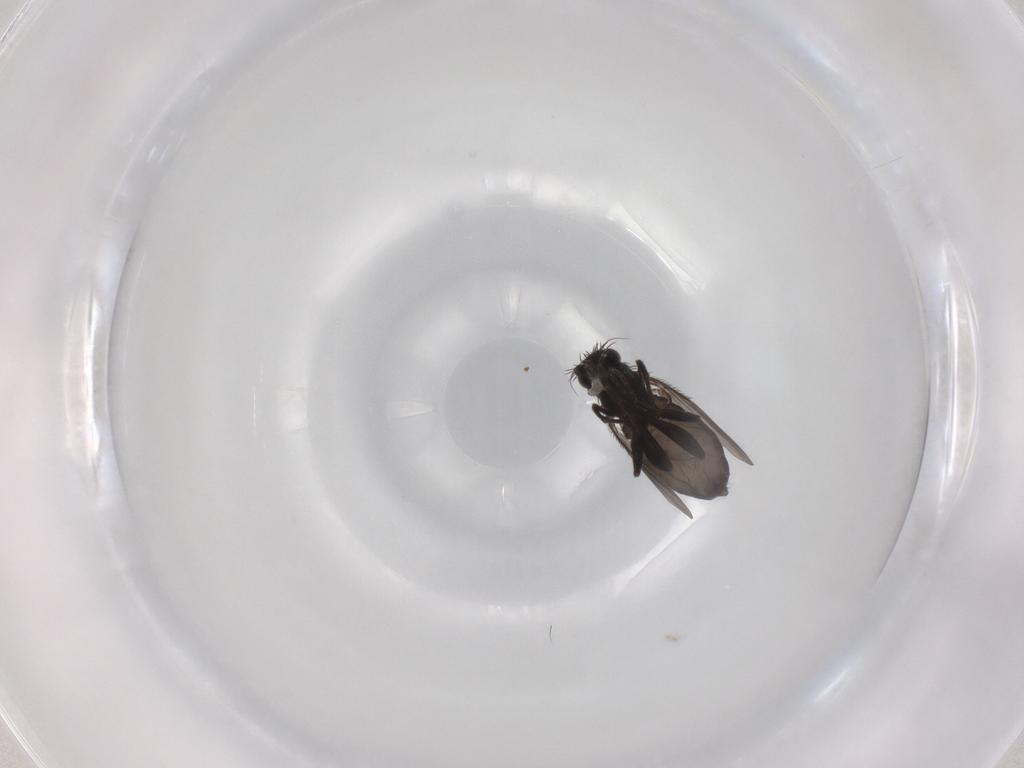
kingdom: Animalia
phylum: Arthropoda
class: Insecta
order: Diptera
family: Phoridae
